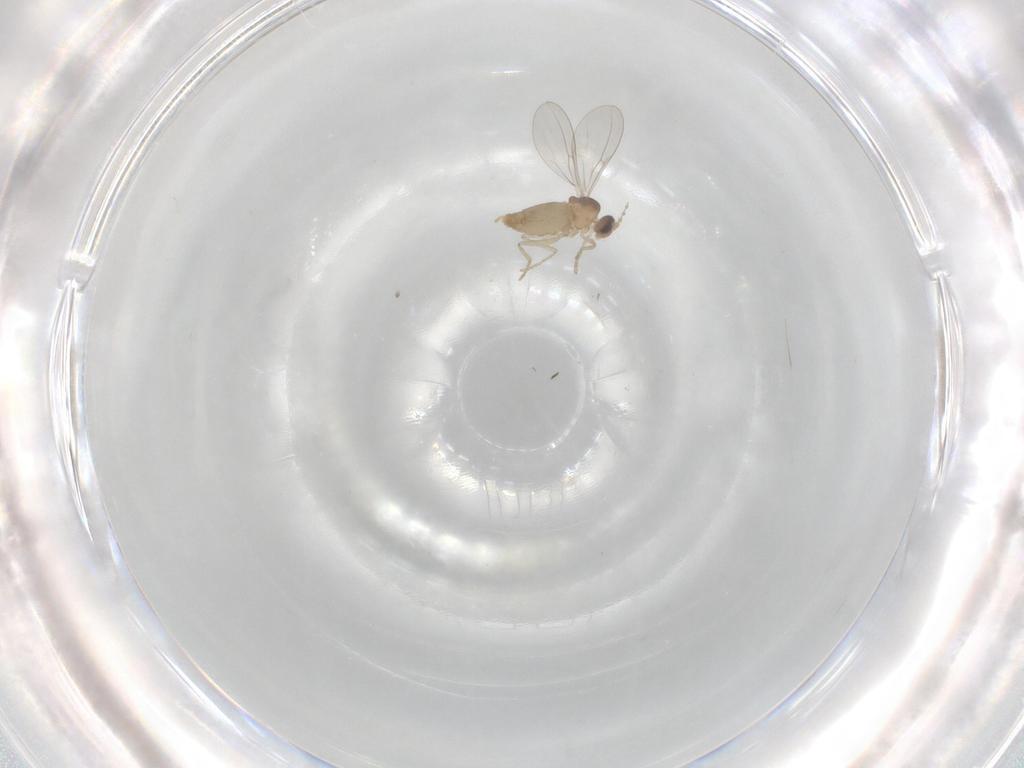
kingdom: Animalia
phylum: Arthropoda
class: Insecta
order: Diptera
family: Cecidomyiidae
